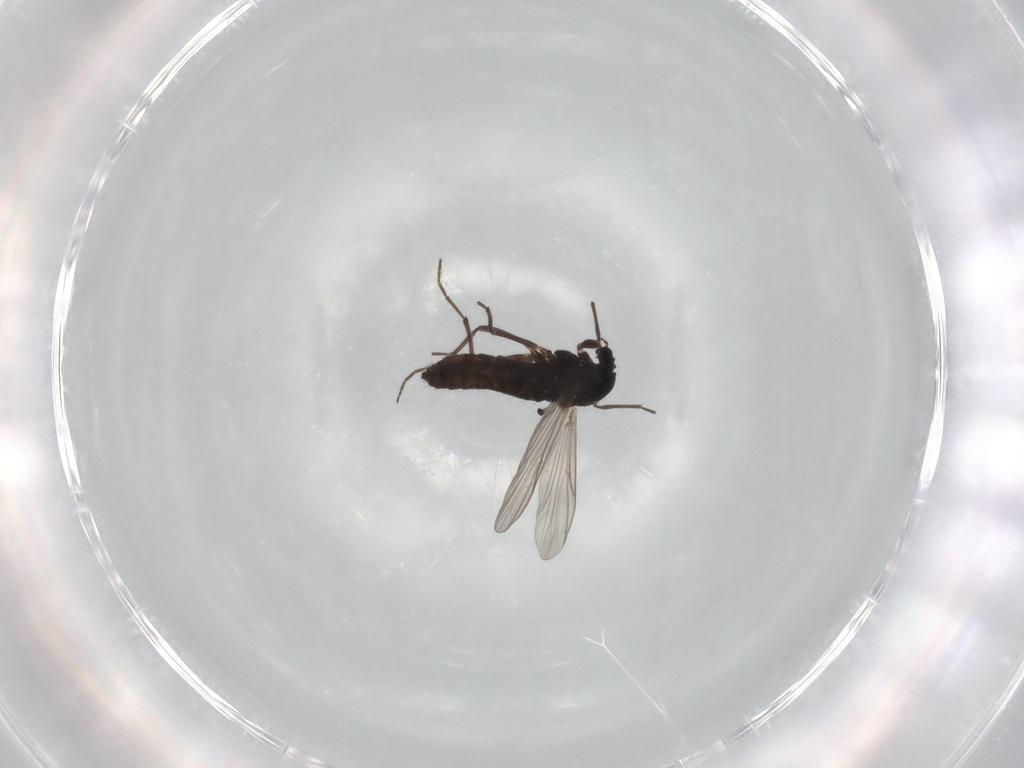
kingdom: Animalia
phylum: Arthropoda
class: Insecta
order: Diptera
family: Chironomidae
